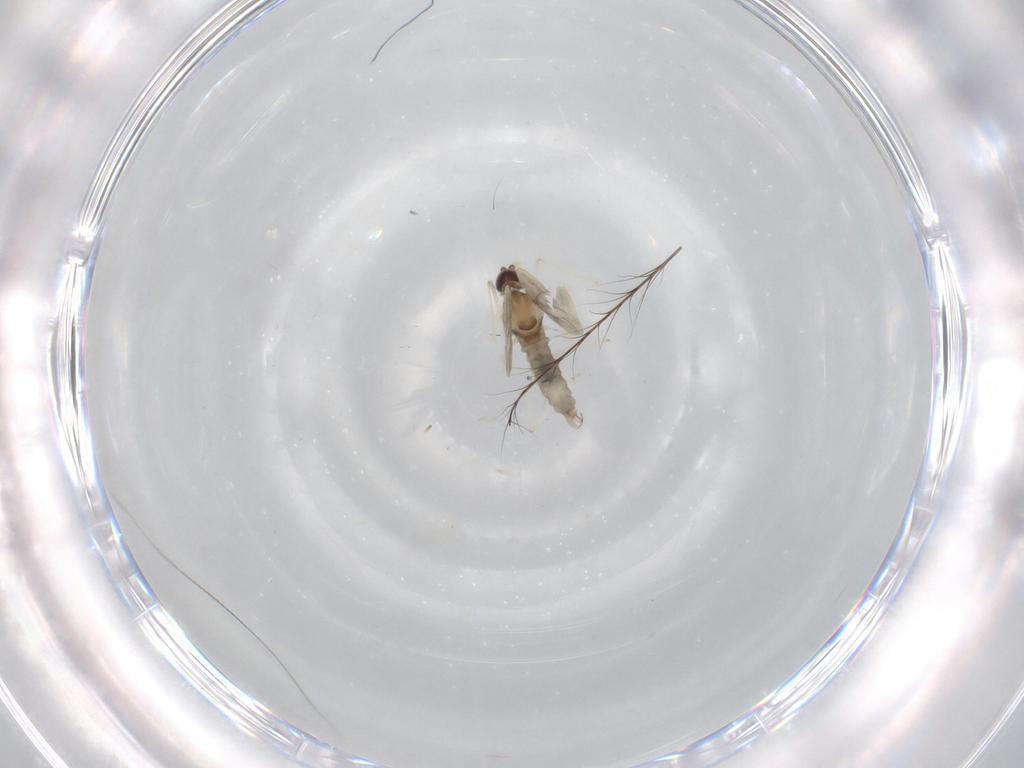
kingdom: Animalia
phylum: Arthropoda
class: Insecta
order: Diptera
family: Cecidomyiidae
